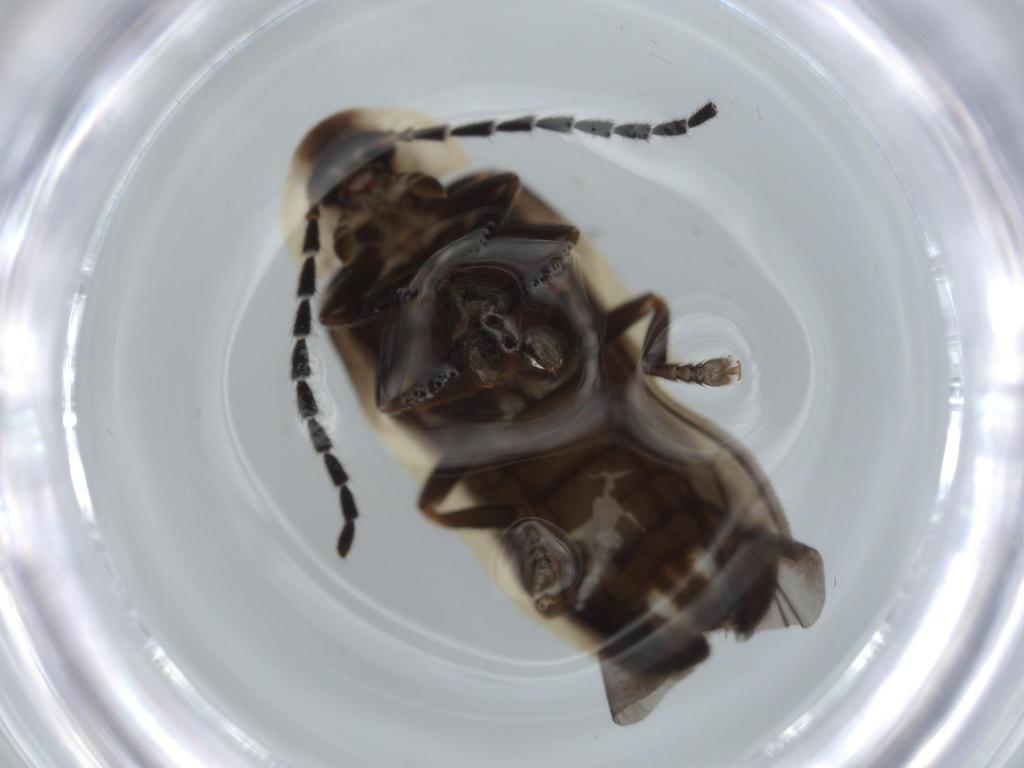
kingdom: Animalia
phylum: Arthropoda
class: Insecta
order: Coleoptera
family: Lampyridae
